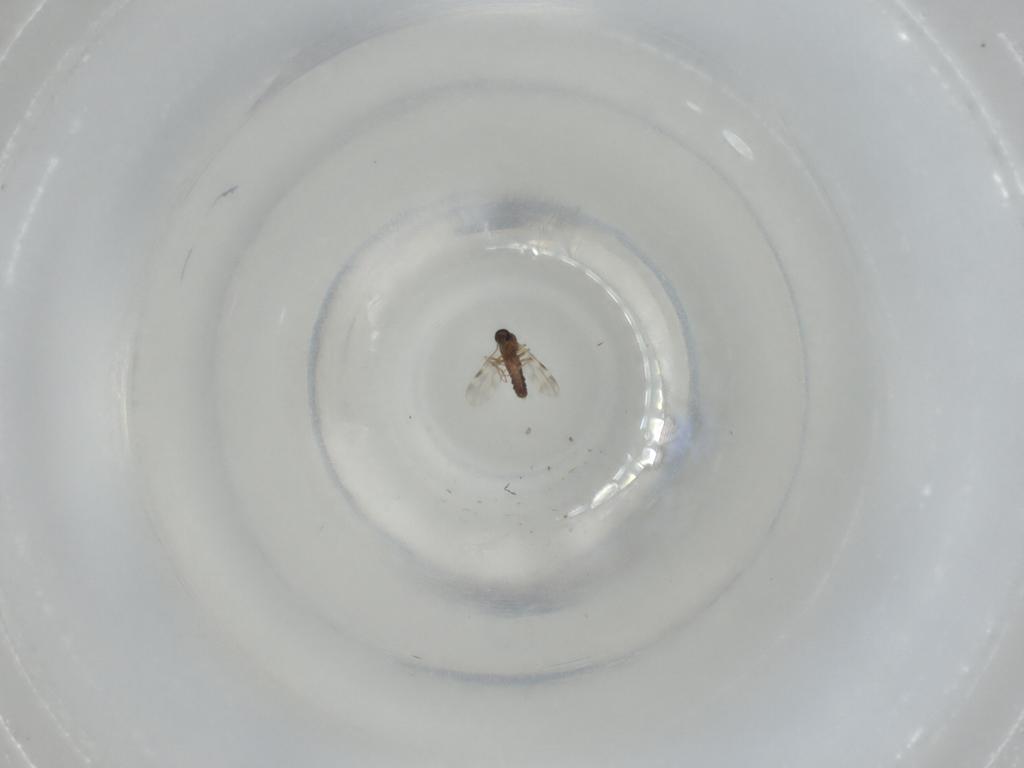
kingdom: Animalia
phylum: Arthropoda
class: Insecta
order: Diptera
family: Ceratopogonidae
